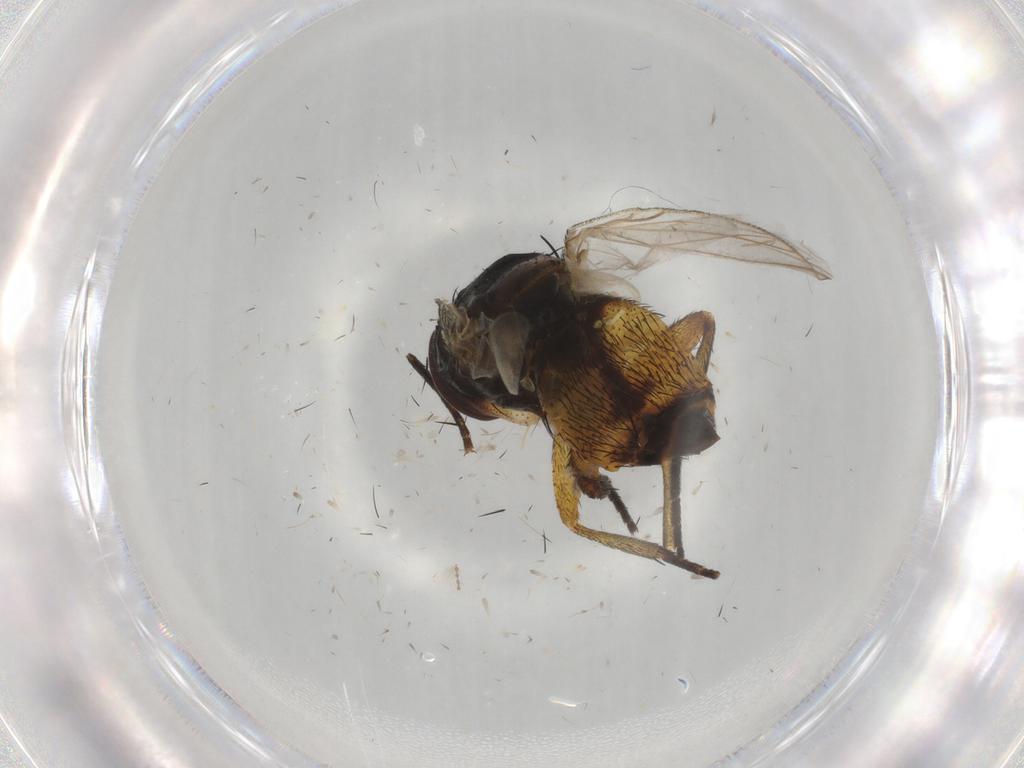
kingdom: Animalia
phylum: Arthropoda
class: Insecta
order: Diptera
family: Cecidomyiidae
